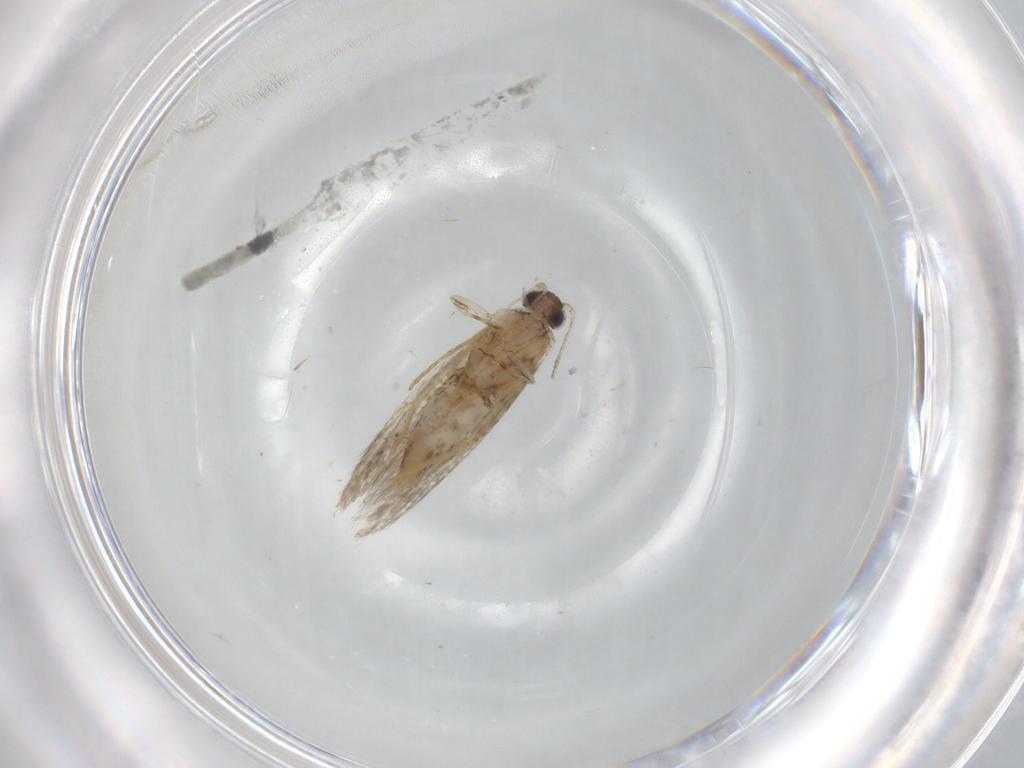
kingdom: Animalia
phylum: Arthropoda
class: Insecta
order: Lepidoptera
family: Tineidae
